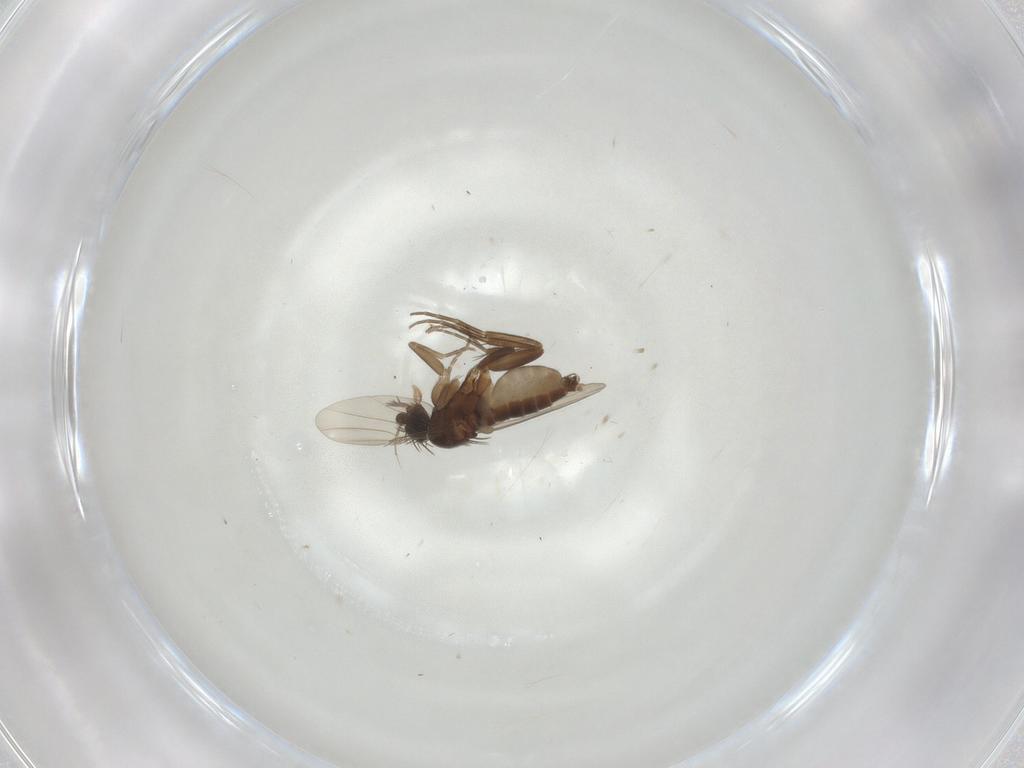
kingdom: Animalia
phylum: Arthropoda
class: Insecta
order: Diptera
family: Phoridae
